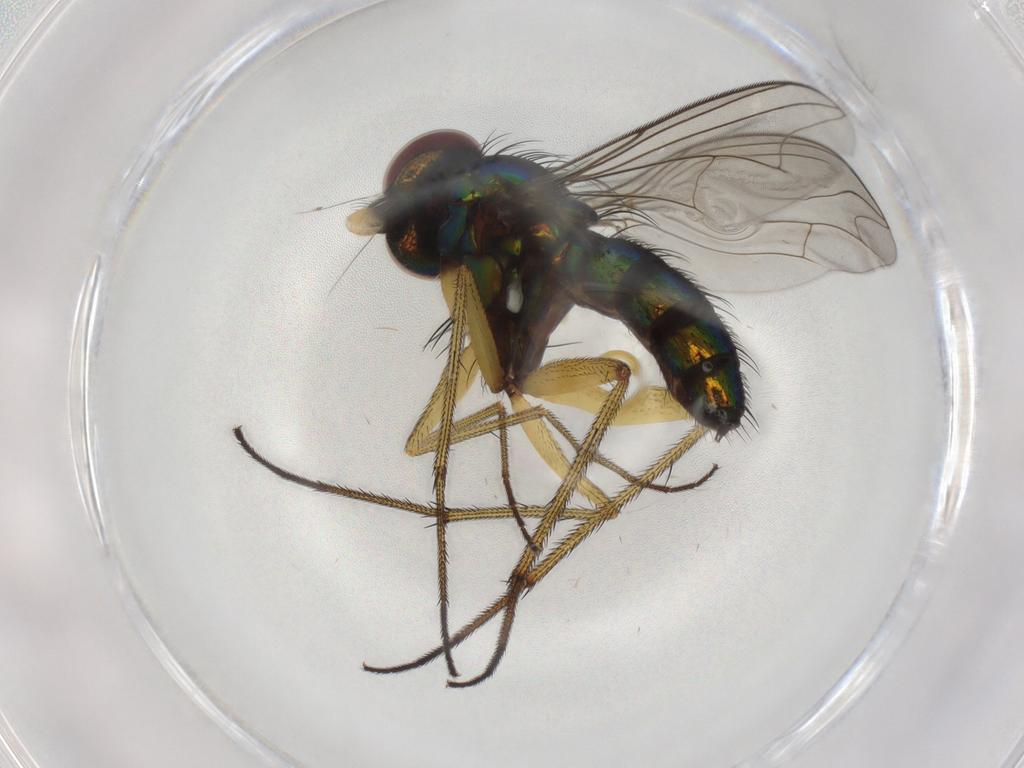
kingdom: Animalia
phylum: Arthropoda
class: Insecta
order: Diptera
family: Dolichopodidae
